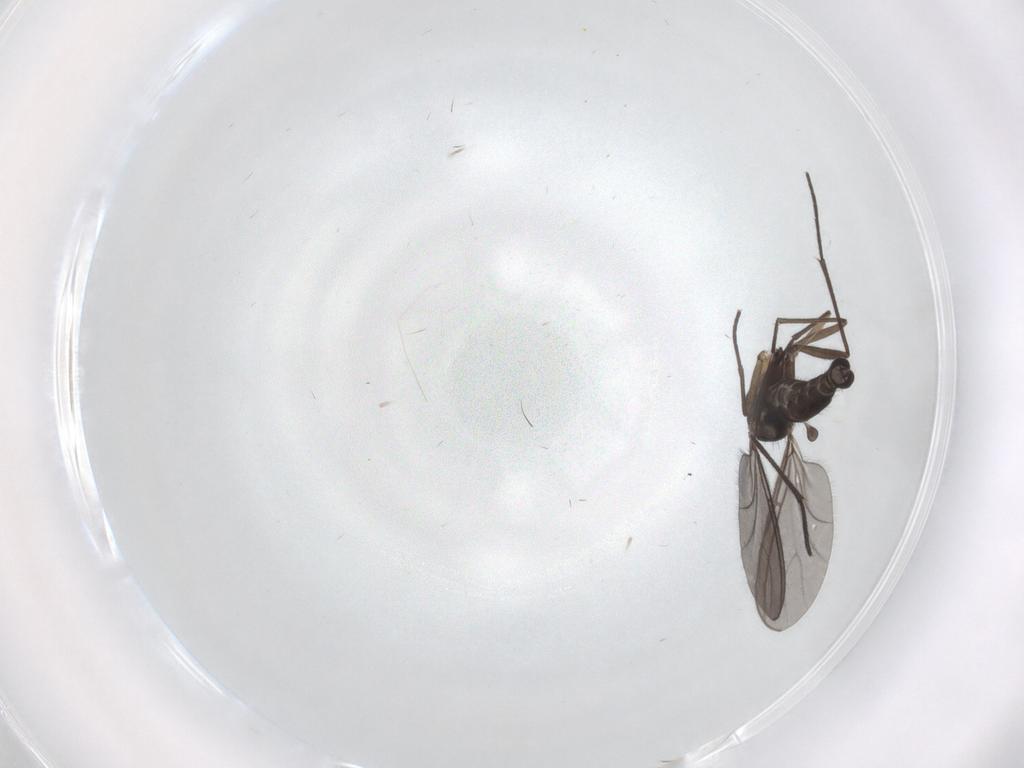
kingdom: Animalia
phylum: Arthropoda
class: Insecta
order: Diptera
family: Sciaridae
